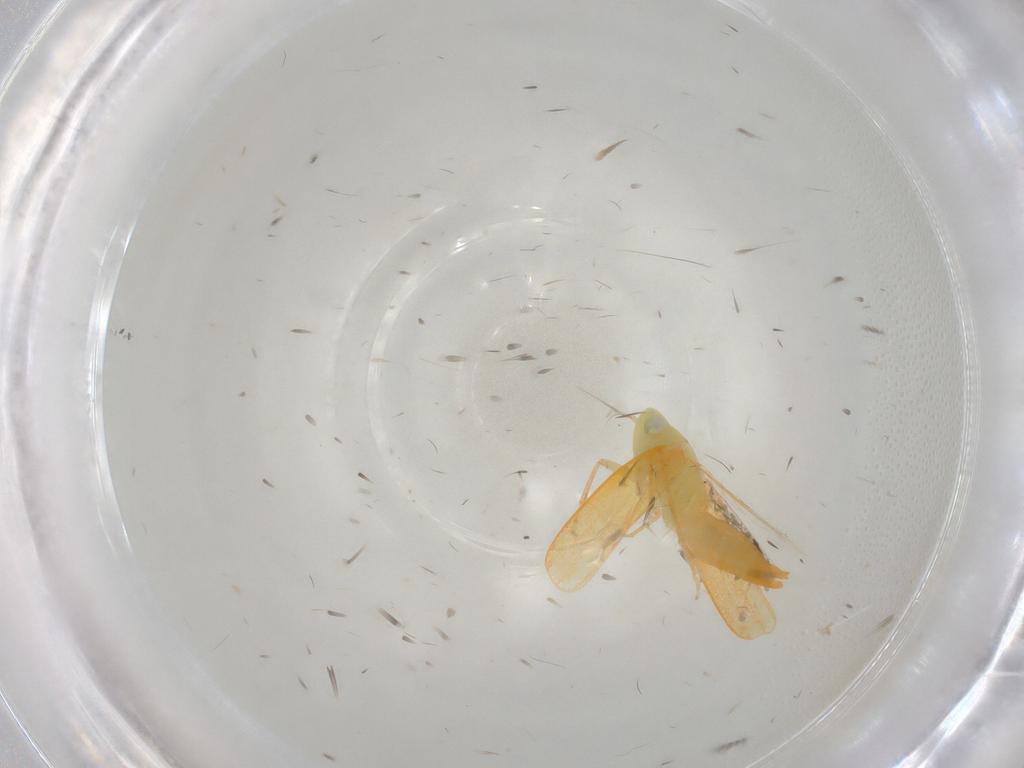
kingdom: Animalia
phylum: Arthropoda
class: Insecta
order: Hemiptera
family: Cicadellidae
